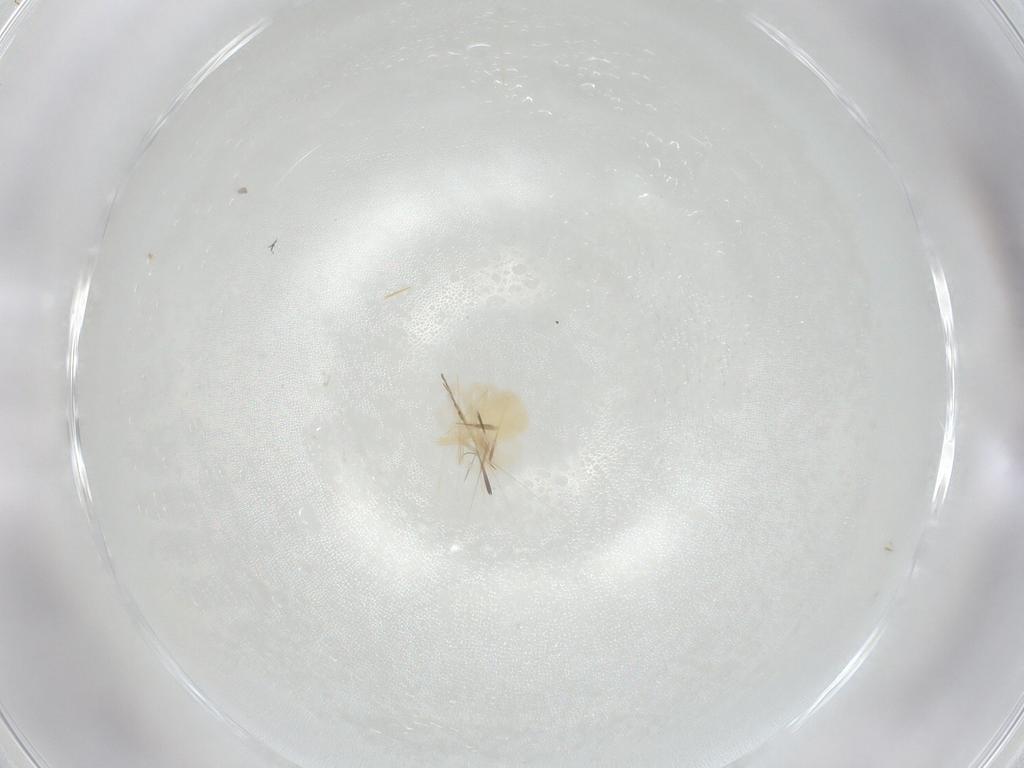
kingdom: Animalia
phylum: Arthropoda
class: Arachnida
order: Trombidiformes
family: Anystidae
